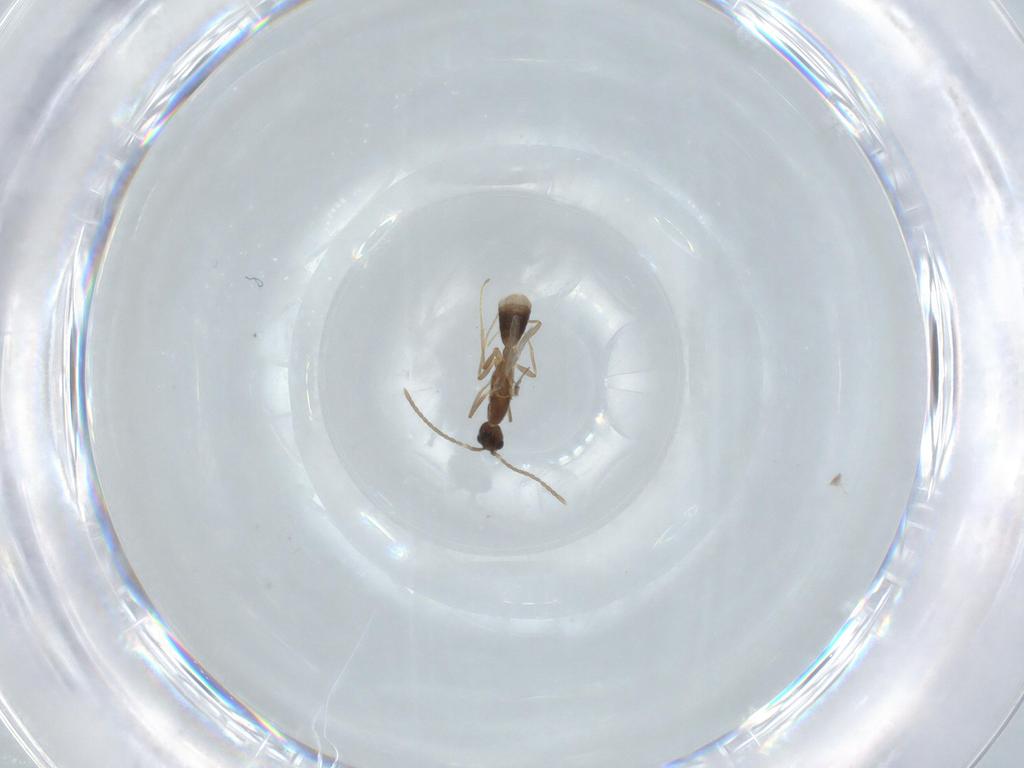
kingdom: Animalia
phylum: Arthropoda
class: Insecta
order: Hymenoptera
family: Formicidae
